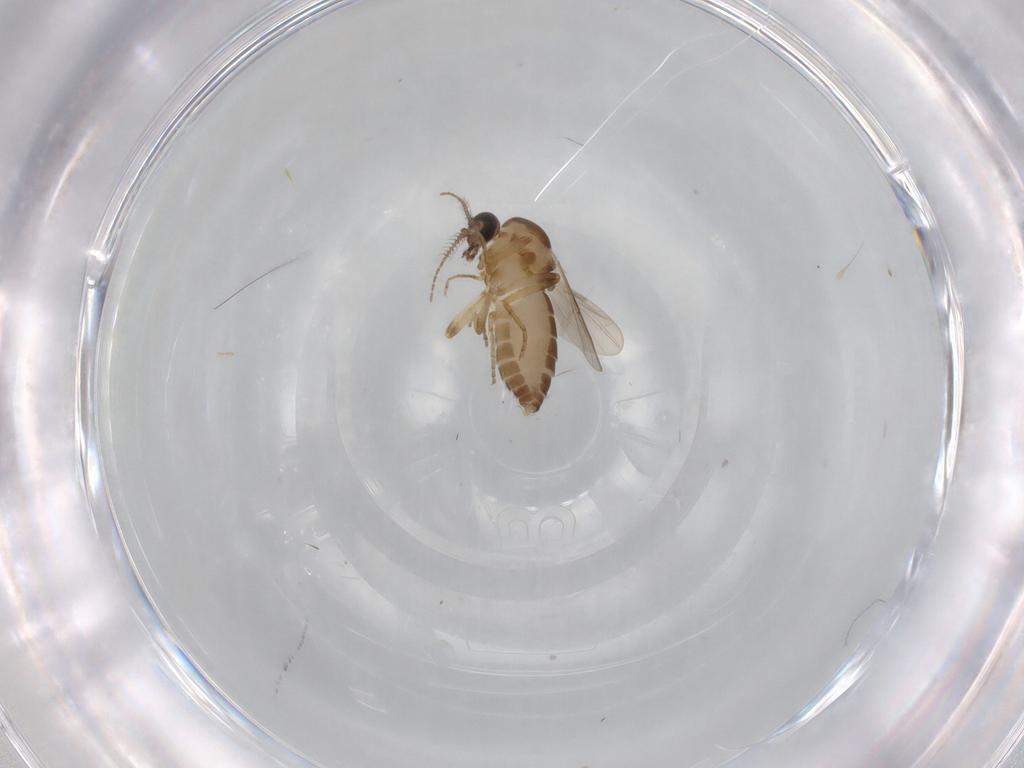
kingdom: Animalia
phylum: Arthropoda
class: Insecta
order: Diptera
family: Ceratopogonidae
